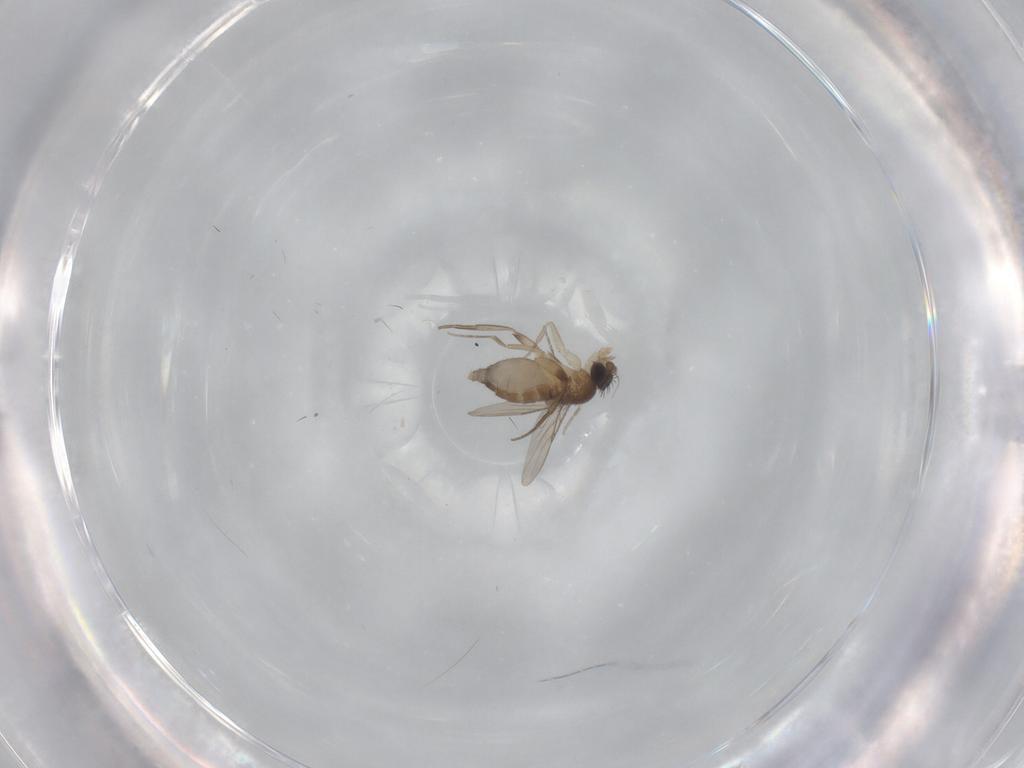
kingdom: Animalia
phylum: Arthropoda
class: Insecta
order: Diptera
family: Phoridae
